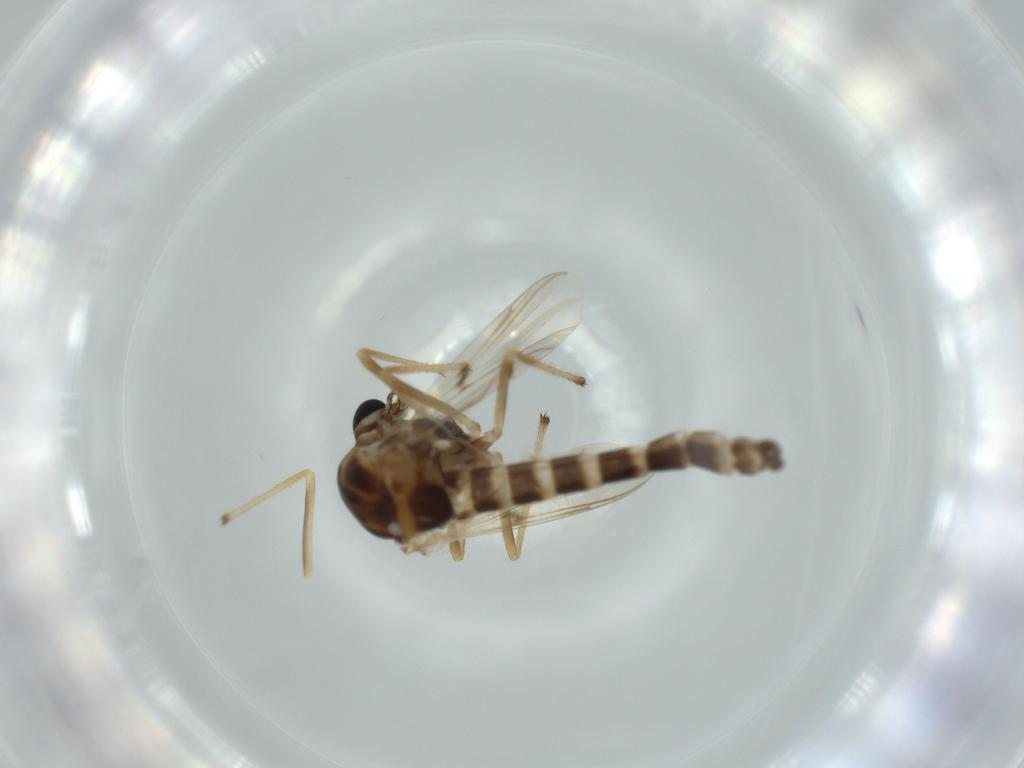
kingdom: Animalia
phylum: Arthropoda
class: Insecta
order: Diptera
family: Chironomidae
